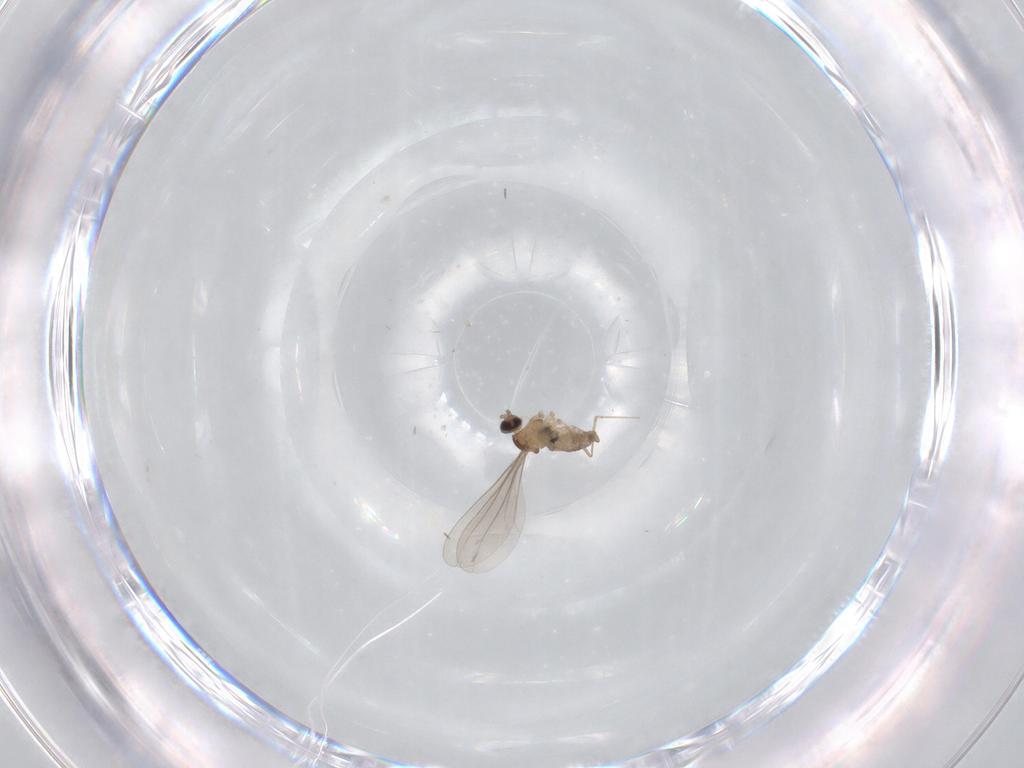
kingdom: Animalia
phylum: Arthropoda
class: Insecta
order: Diptera
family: Cecidomyiidae
